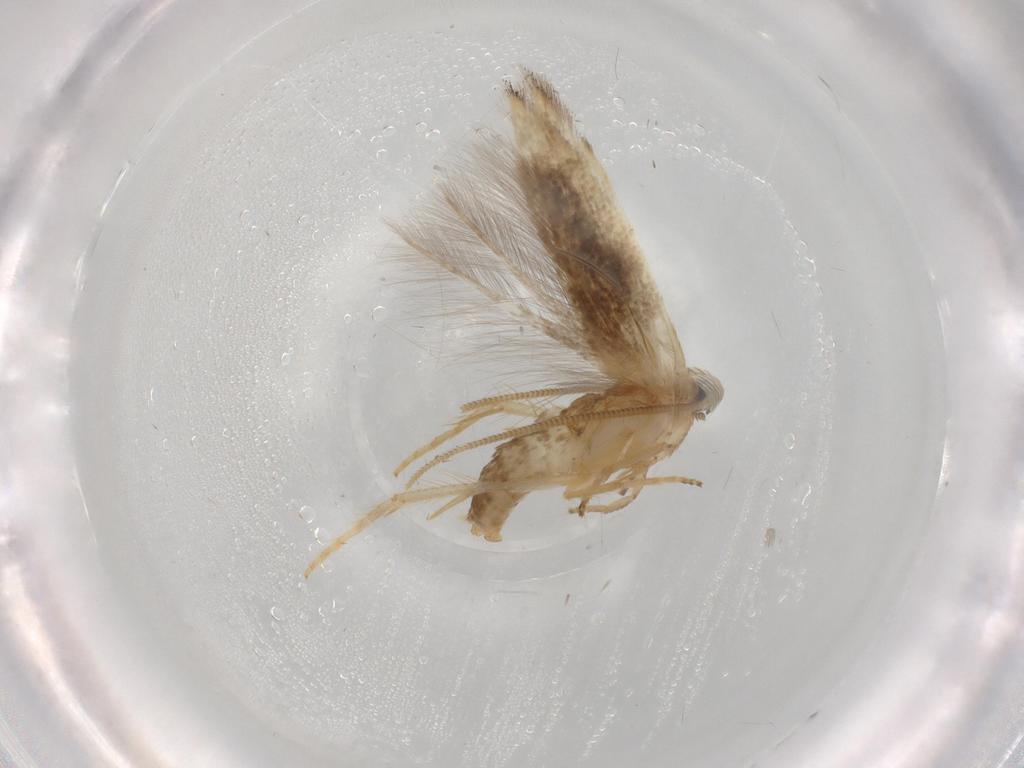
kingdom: Animalia
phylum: Arthropoda
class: Insecta
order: Lepidoptera
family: Opostegidae
